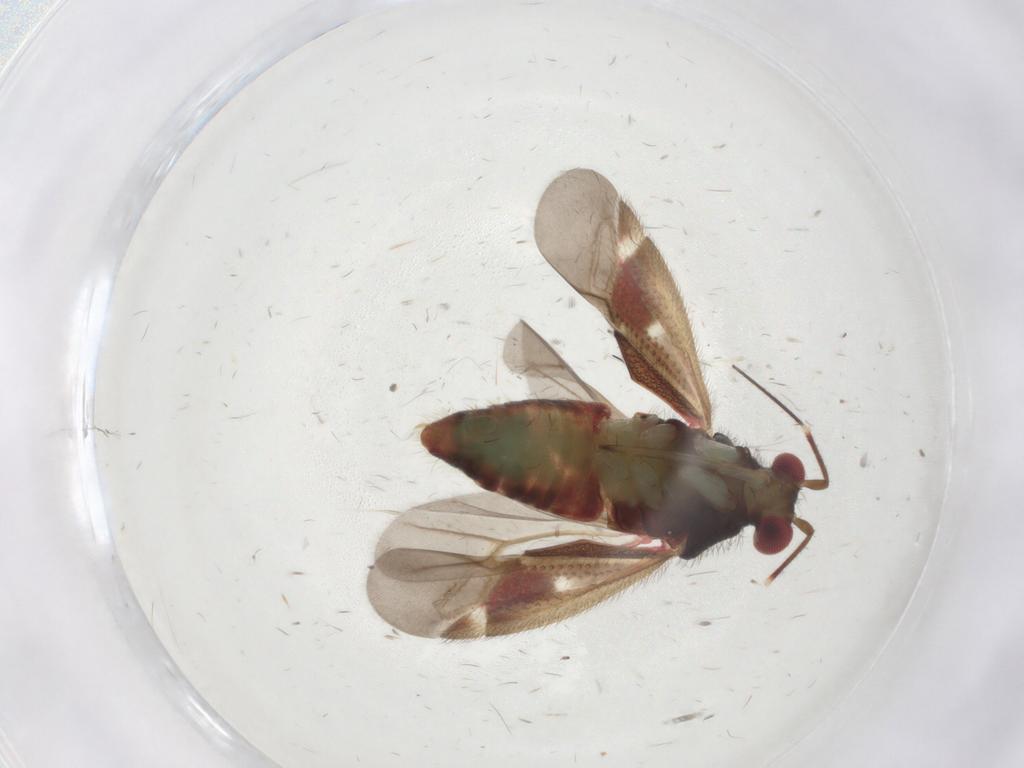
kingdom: Animalia
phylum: Arthropoda
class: Insecta
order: Hemiptera
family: Miridae
